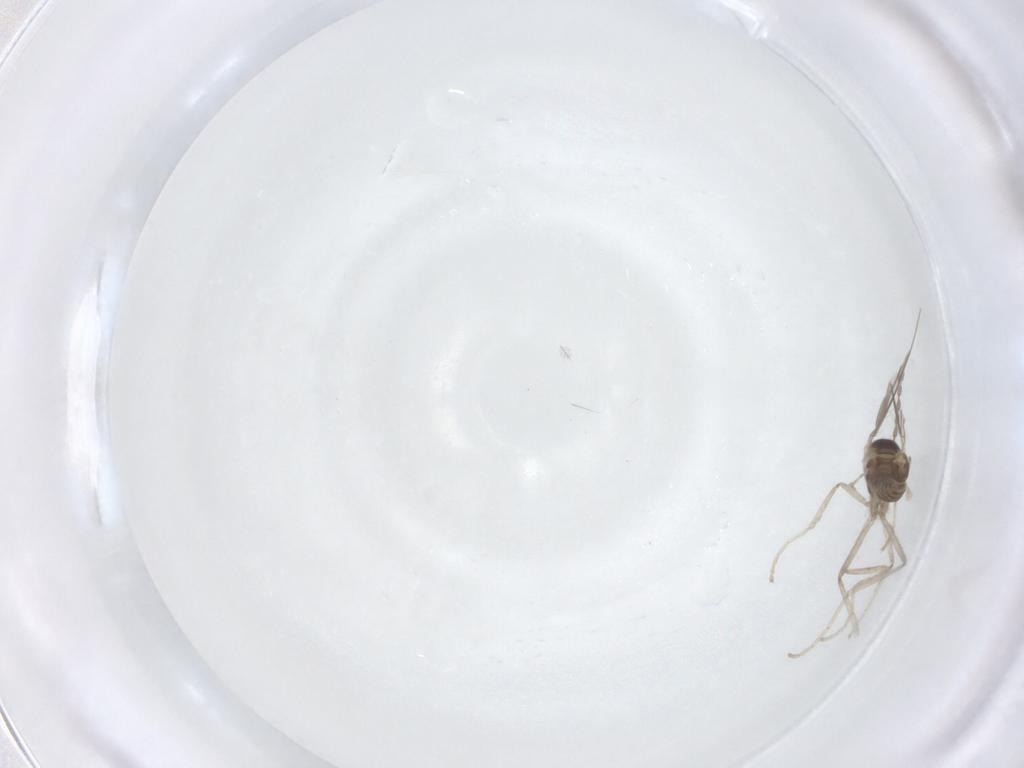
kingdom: Animalia
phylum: Arthropoda
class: Insecta
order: Diptera
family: Cecidomyiidae
